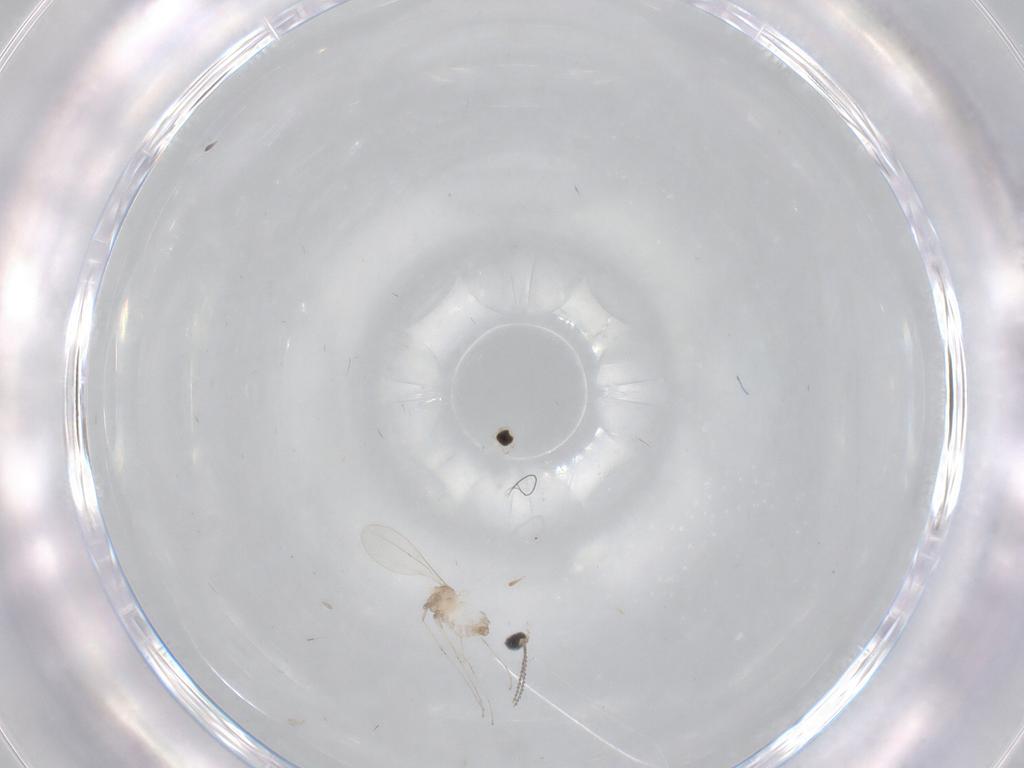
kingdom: Animalia
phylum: Arthropoda
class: Insecta
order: Diptera
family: Cecidomyiidae
